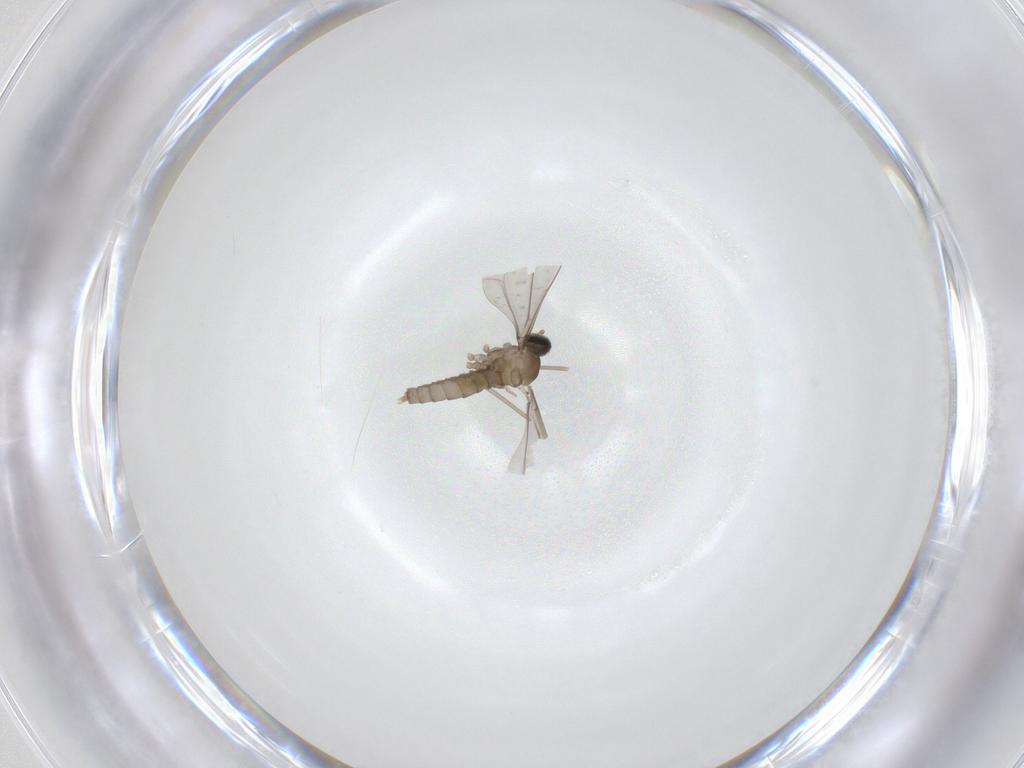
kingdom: Animalia
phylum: Arthropoda
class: Insecta
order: Diptera
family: Cecidomyiidae
